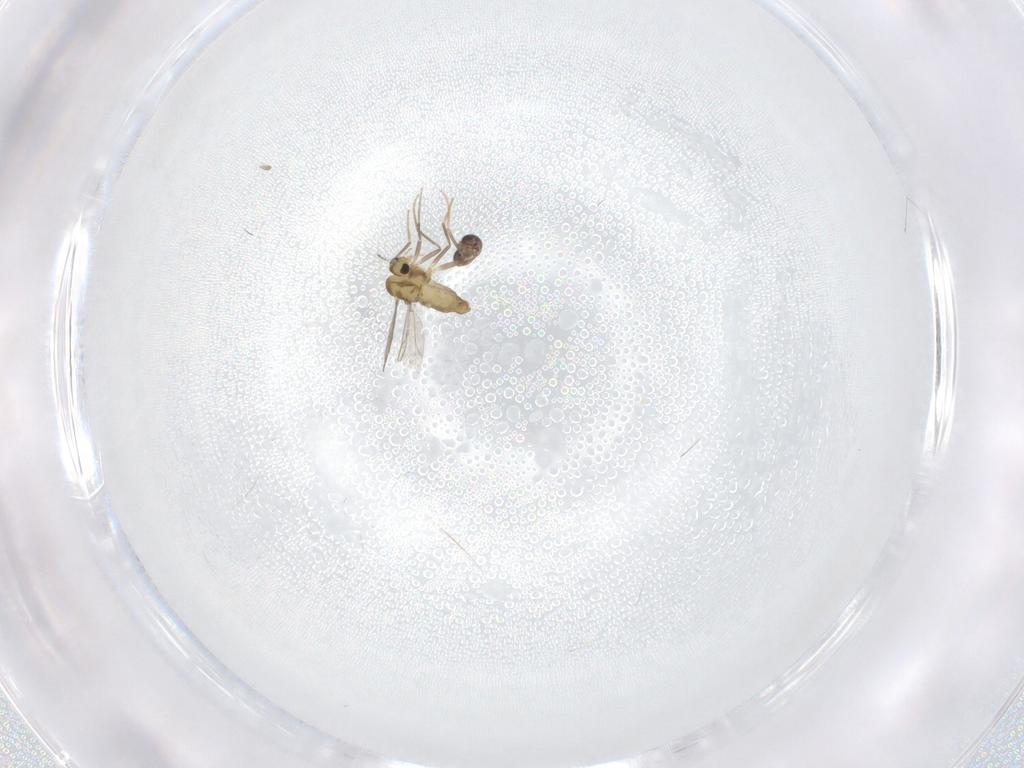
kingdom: Animalia
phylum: Arthropoda
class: Insecta
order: Diptera
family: Chironomidae
